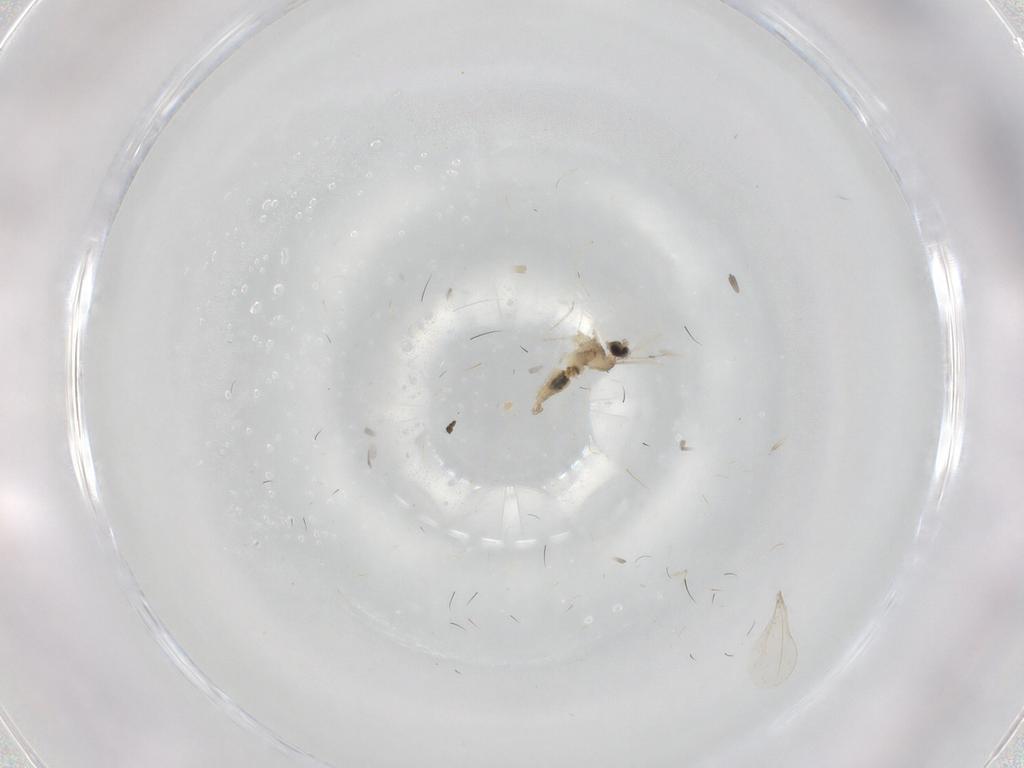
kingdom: Animalia
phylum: Arthropoda
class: Insecta
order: Diptera
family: Cecidomyiidae
